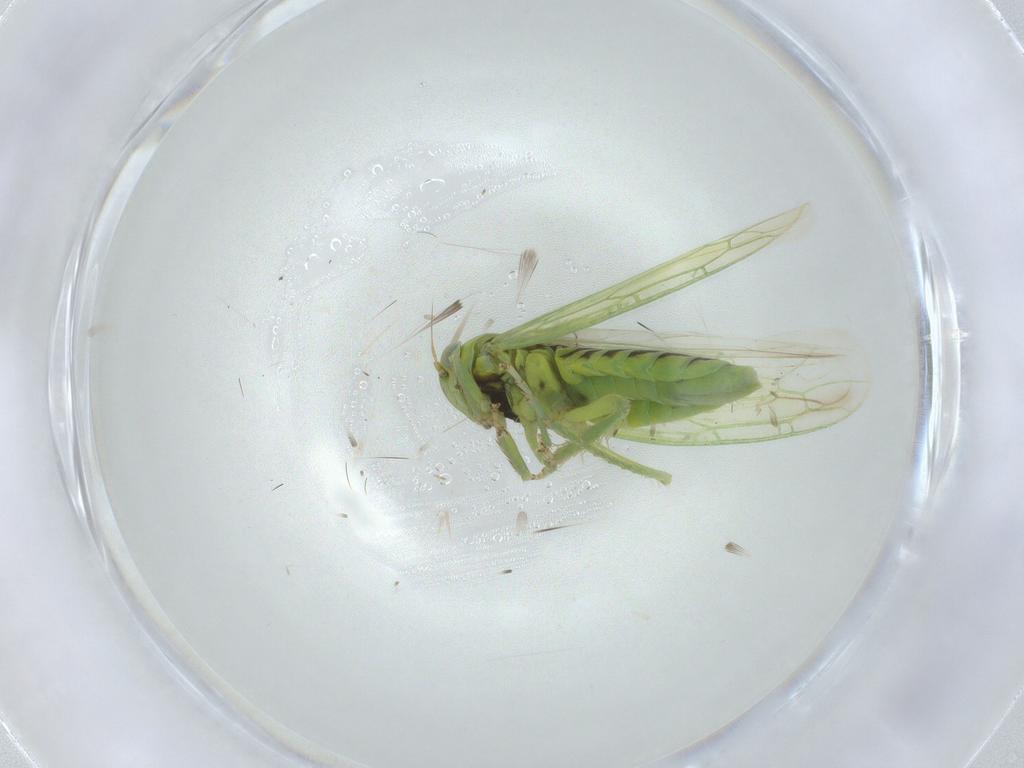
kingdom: Animalia
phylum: Arthropoda
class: Insecta
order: Hemiptera
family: Cicadellidae
